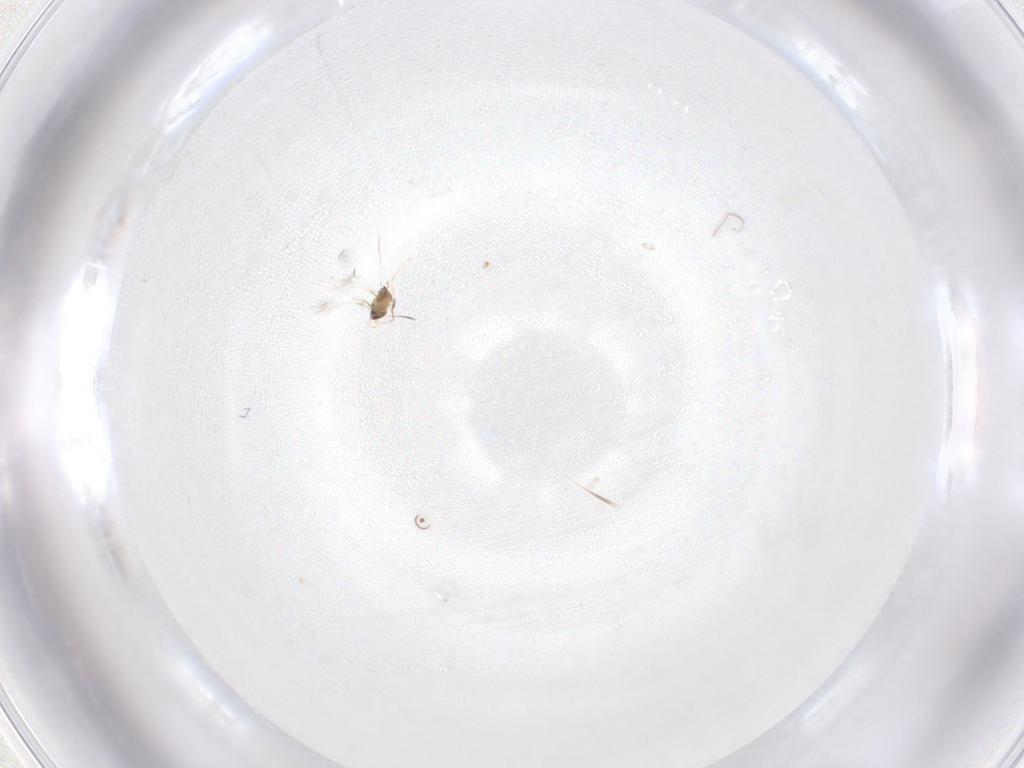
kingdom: Animalia
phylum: Arthropoda
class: Insecta
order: Hymenoptera
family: Mymaridae
